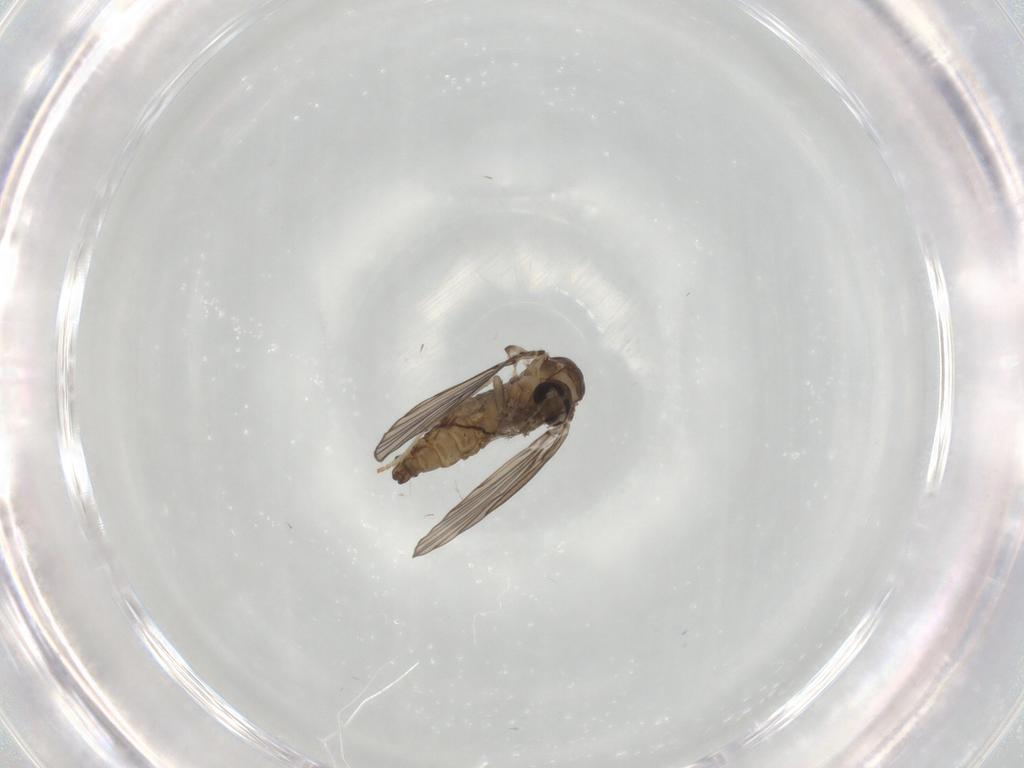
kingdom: Animalia
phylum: Arthropoda
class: Insecta
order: Diptera
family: Psychodidae
